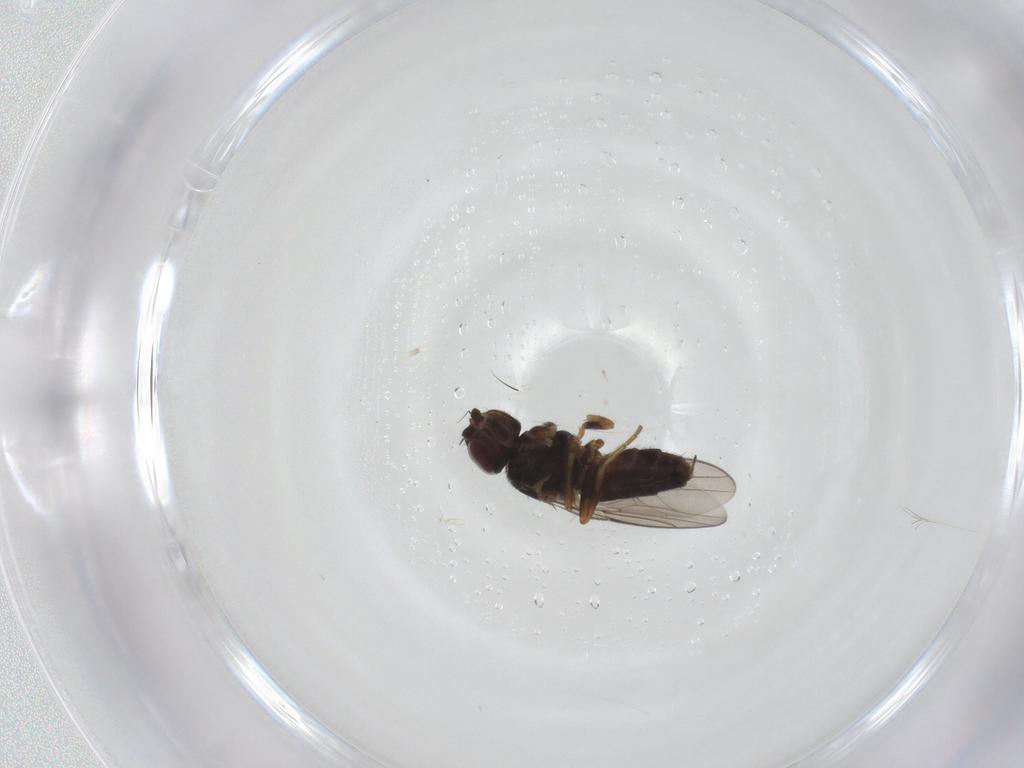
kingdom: Animalia
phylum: Arthropoda
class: Insecta
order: Diptera
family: Chloropidae
